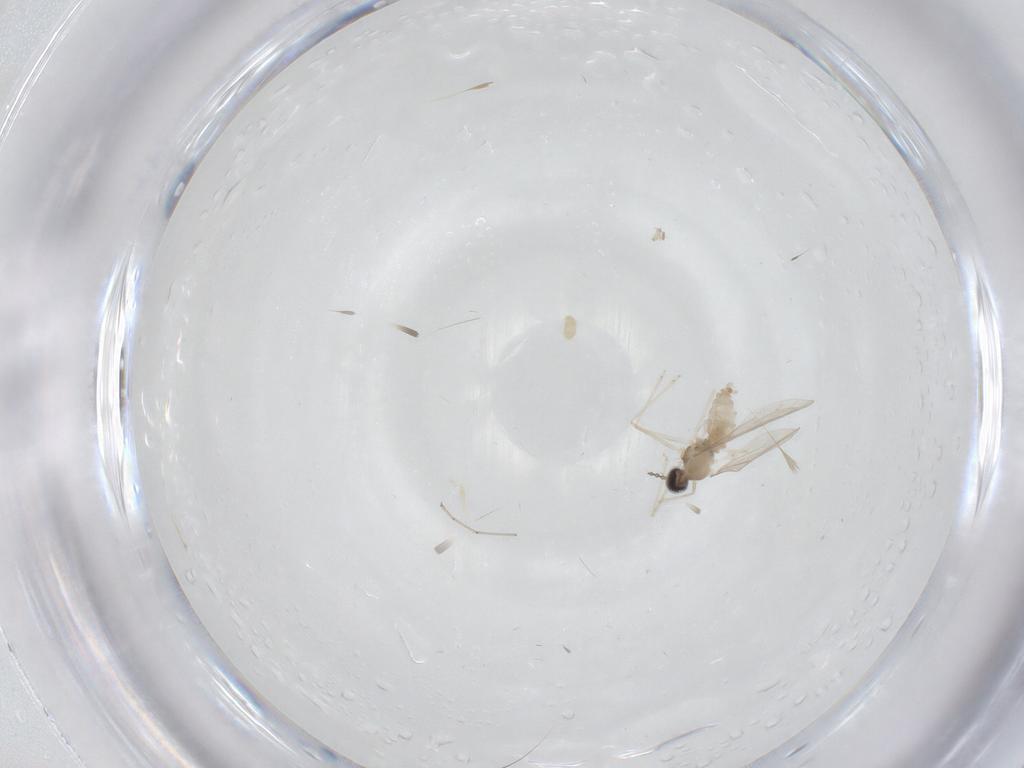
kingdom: Animalia
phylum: Arthropoda
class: Insecta
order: Diptera
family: Cecidomyiidae
